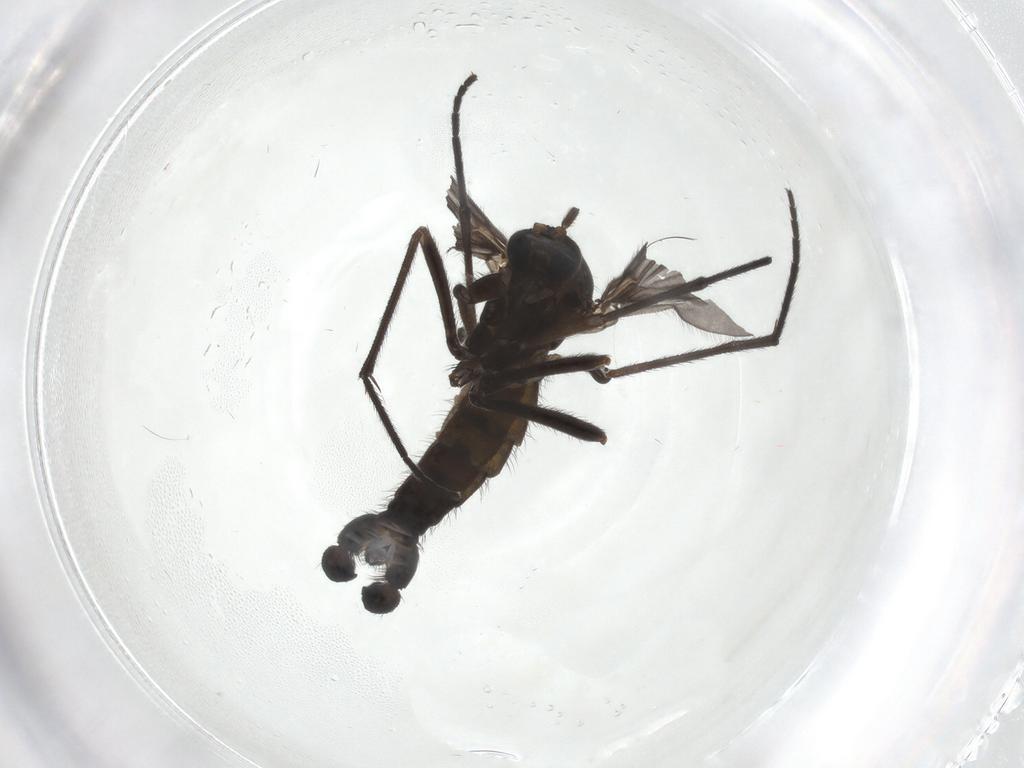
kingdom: Animalia
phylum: Arthropoda
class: Insecta
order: Diptera
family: Sciaridae
